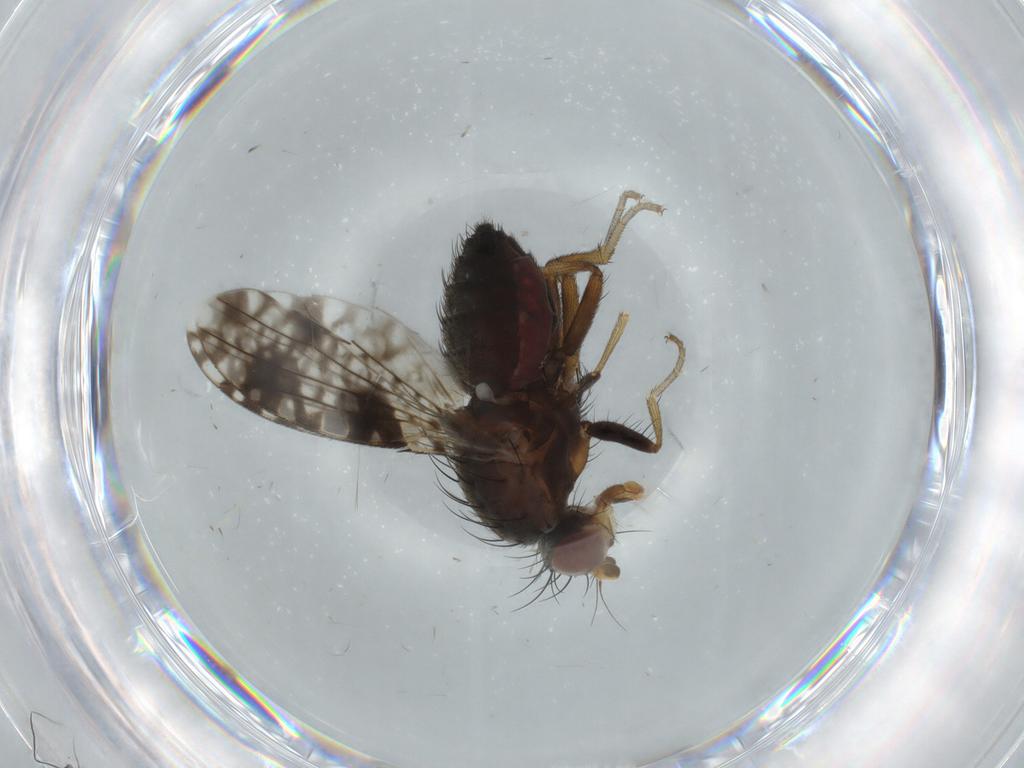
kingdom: Animalia
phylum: Arthropoda
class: Insecta
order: Diptera
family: Tephritidae
